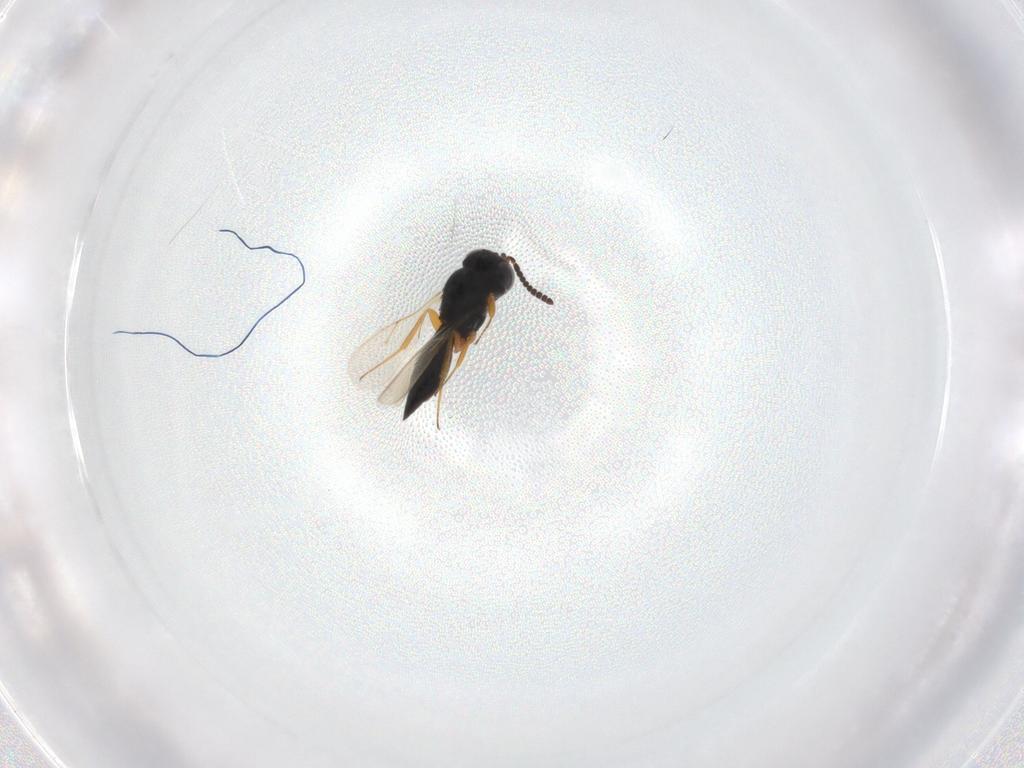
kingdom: Animalia
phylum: Arthropoda
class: Insecta
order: Hymenoptera
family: Scelionidae
